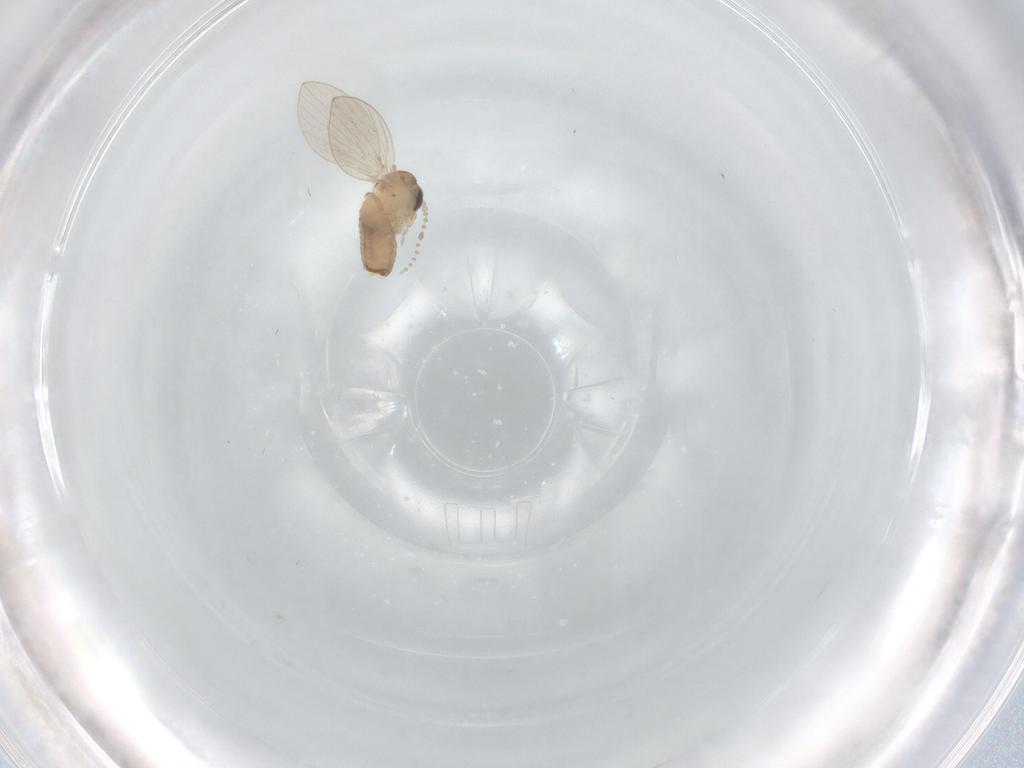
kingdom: Animalia
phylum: Arthropoda
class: Insecta
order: Diptera
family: Psychodidae
